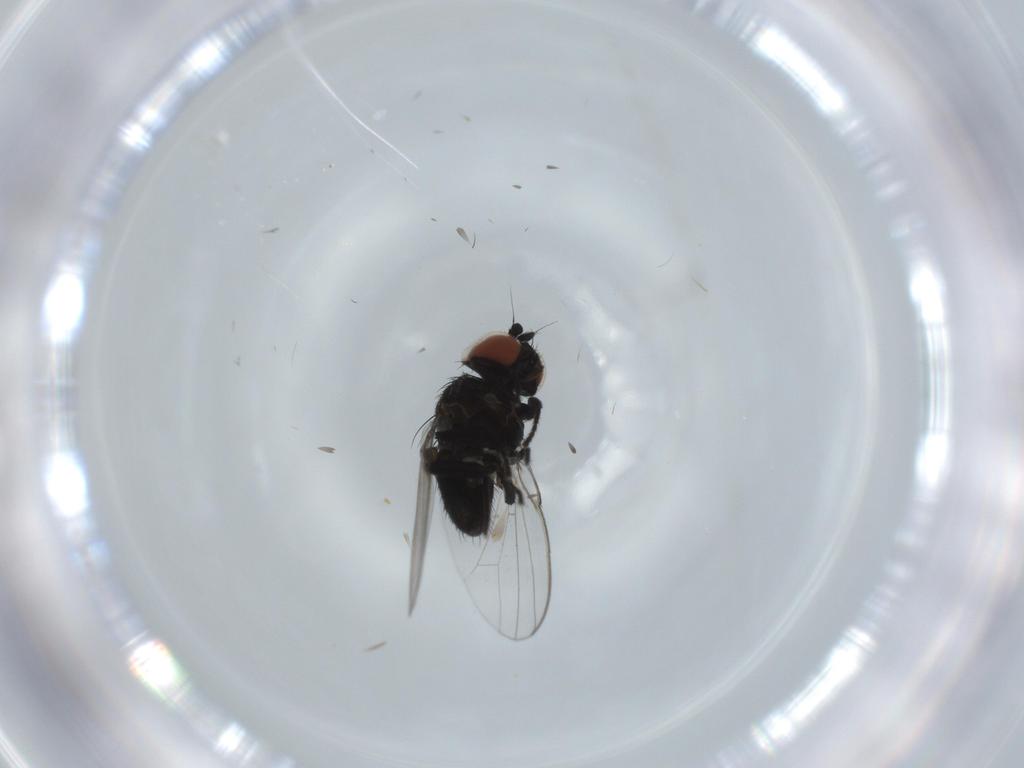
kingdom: Animalia
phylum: Arthropoda
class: Insecta
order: Diptera
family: Milichiidae
